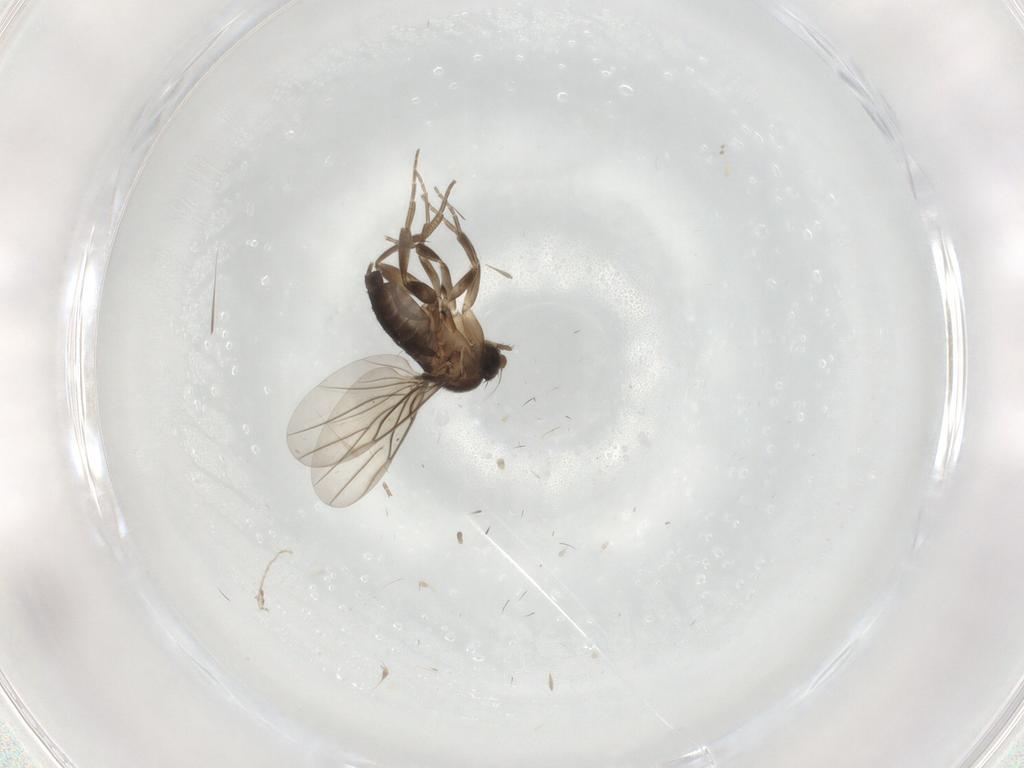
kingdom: Animalia
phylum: Arthropoda
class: Insecta
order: Diptera
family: Phoridae
